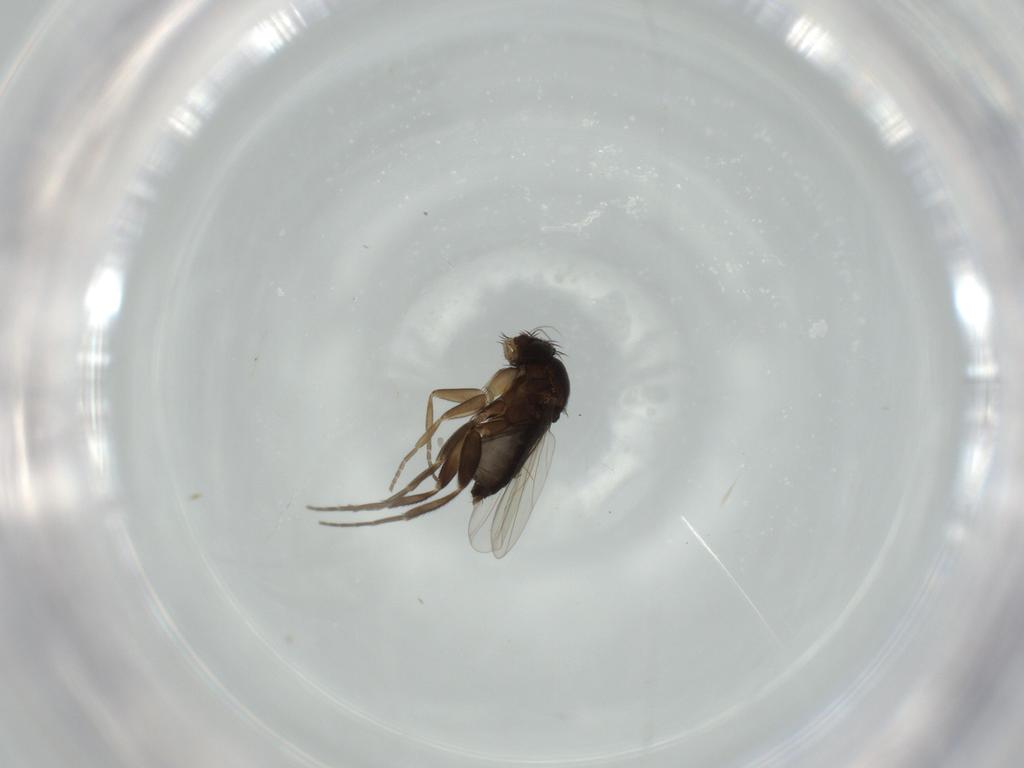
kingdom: Animalia
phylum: Arthropoda
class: Insecta
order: Diptera
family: Phoridae
